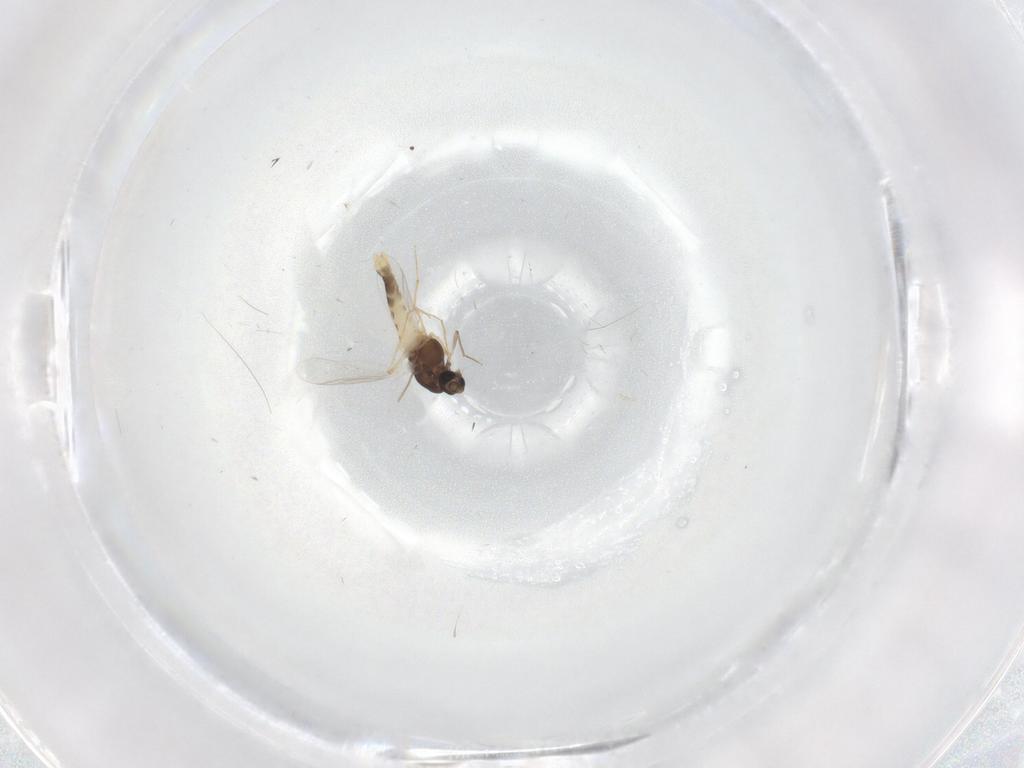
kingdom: Animalia
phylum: Arthropoda
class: Insecta
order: Diptera
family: Chironomidae
